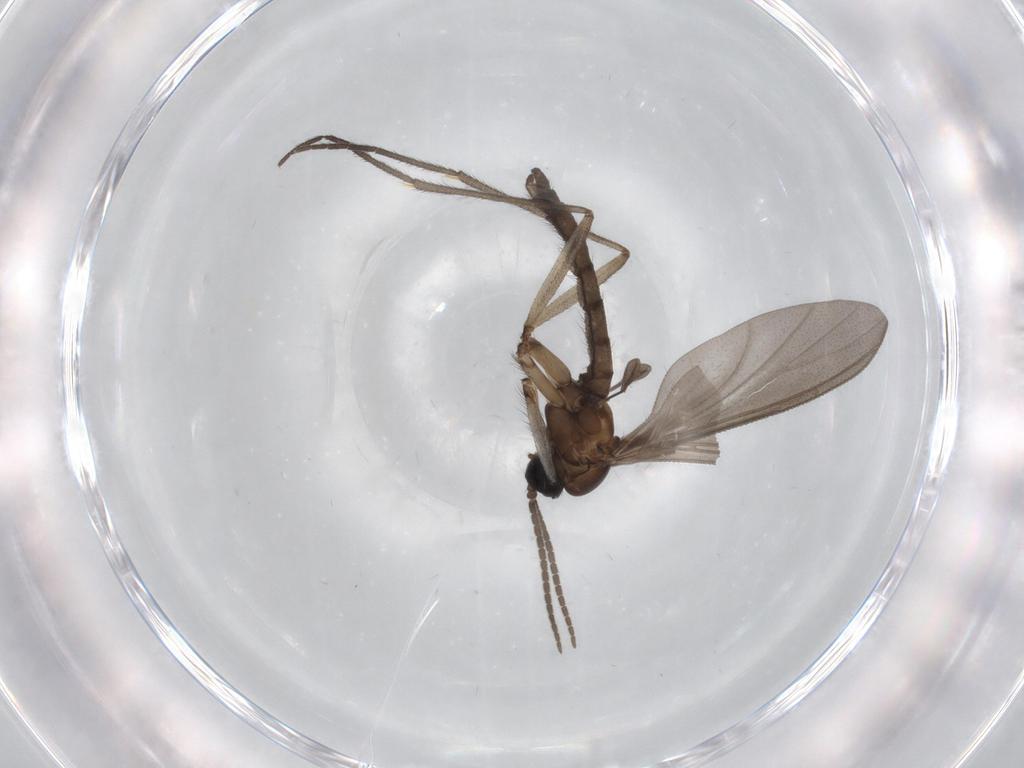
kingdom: Animalia
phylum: Arthropoda
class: Insecta
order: Diptera
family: Sciaridae
